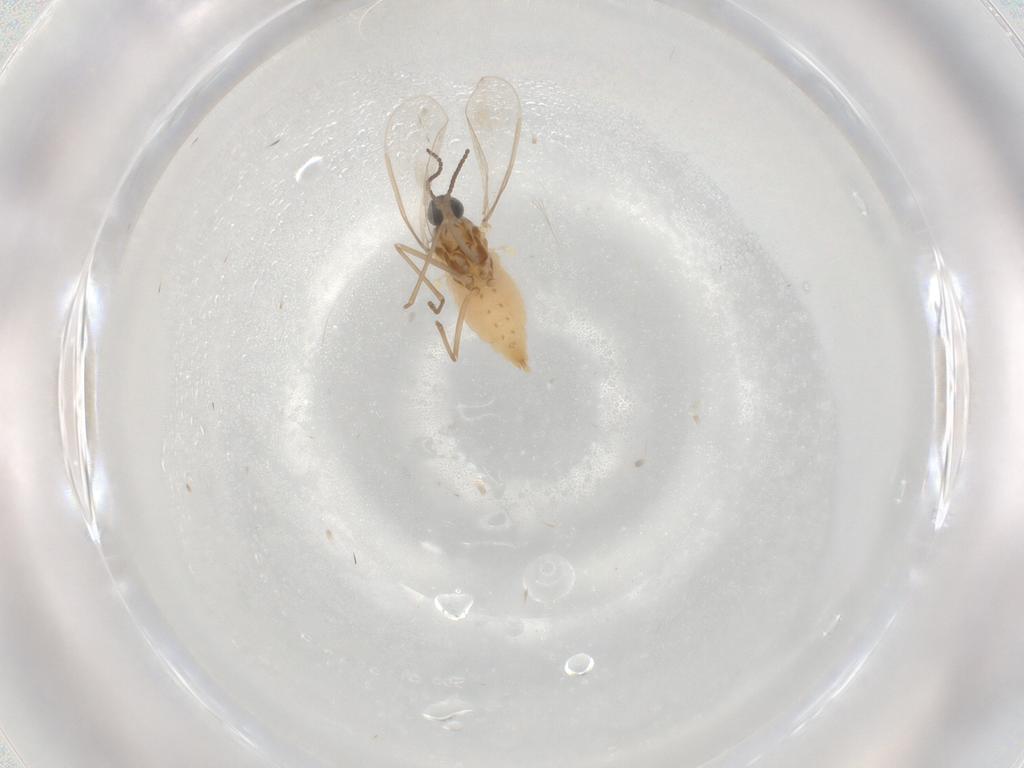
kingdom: Animalia
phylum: Arthropoda
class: Insecta
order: Diptera
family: Cecidomyiidae
